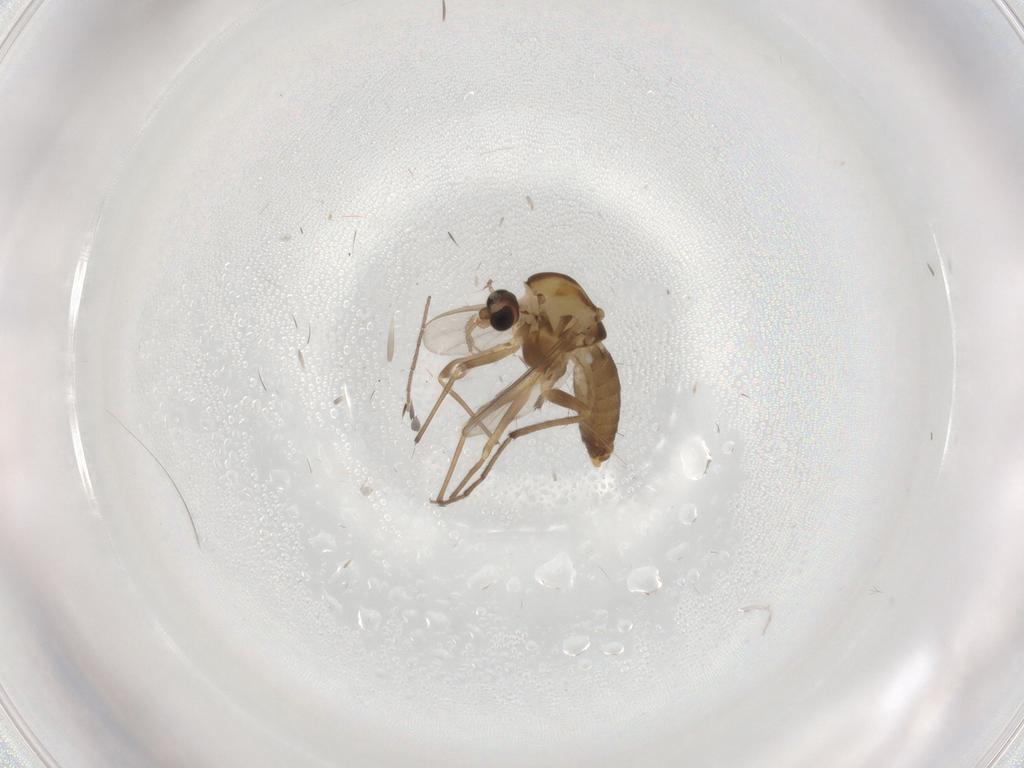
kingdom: Animalia
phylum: Arthropoda
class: Insecta
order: Diptera
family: Chironomidae
